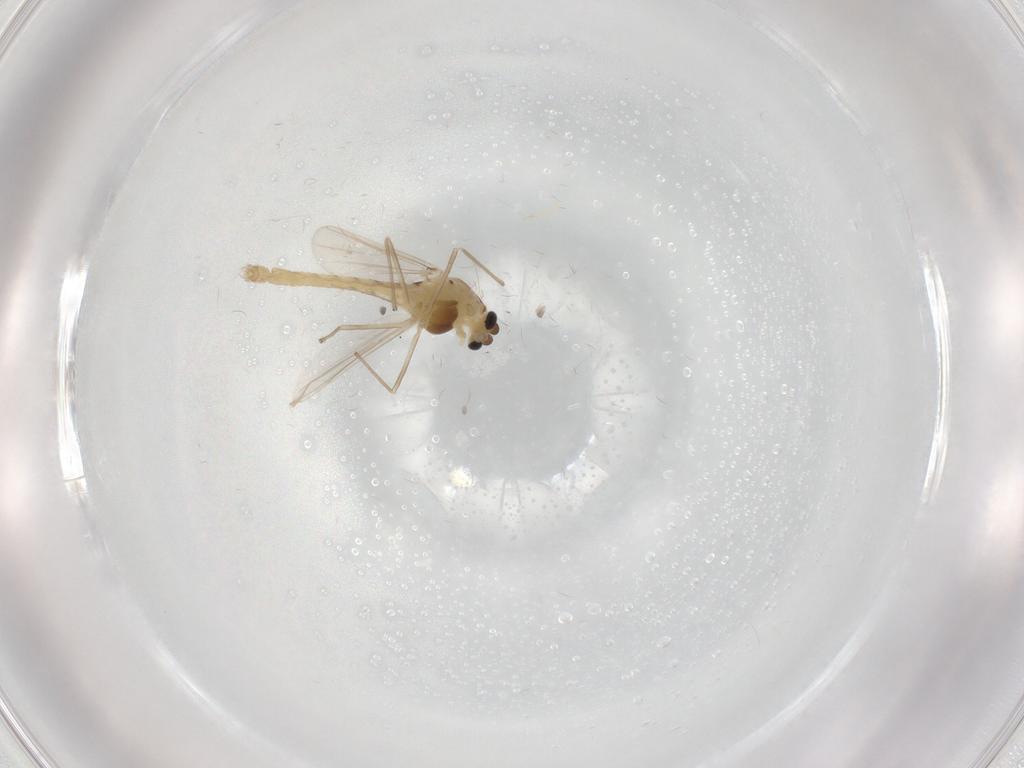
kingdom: Animalia
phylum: Arthropoda
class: Insecta
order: Diptera
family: Chironomidae
